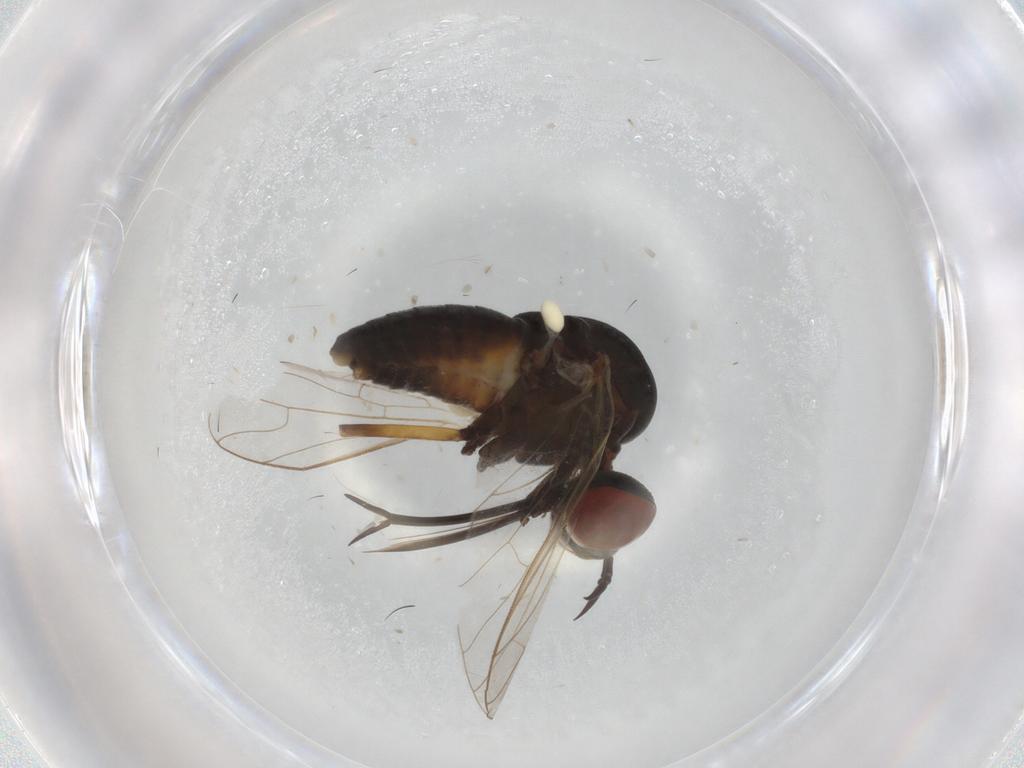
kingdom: Animalia
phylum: Arthropoda
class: Insecta
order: Diptera
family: Bombyliidae
